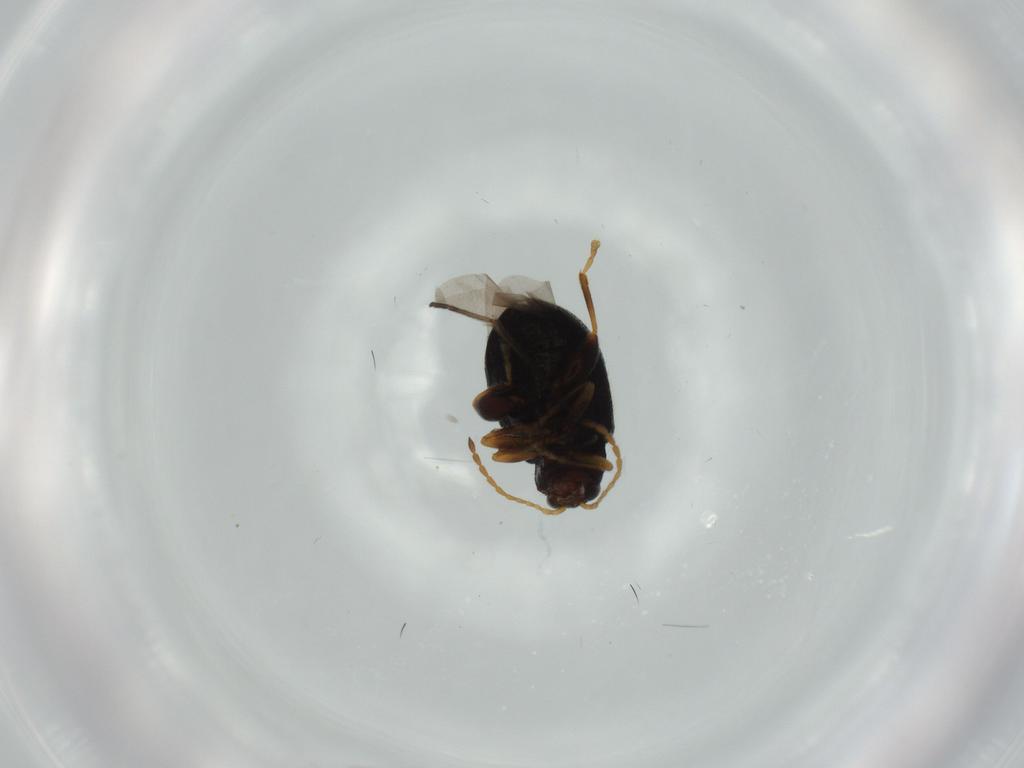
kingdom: Animalia
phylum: Arthropoda
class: Insecta
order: Coleoptera
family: Chrysomelidae
